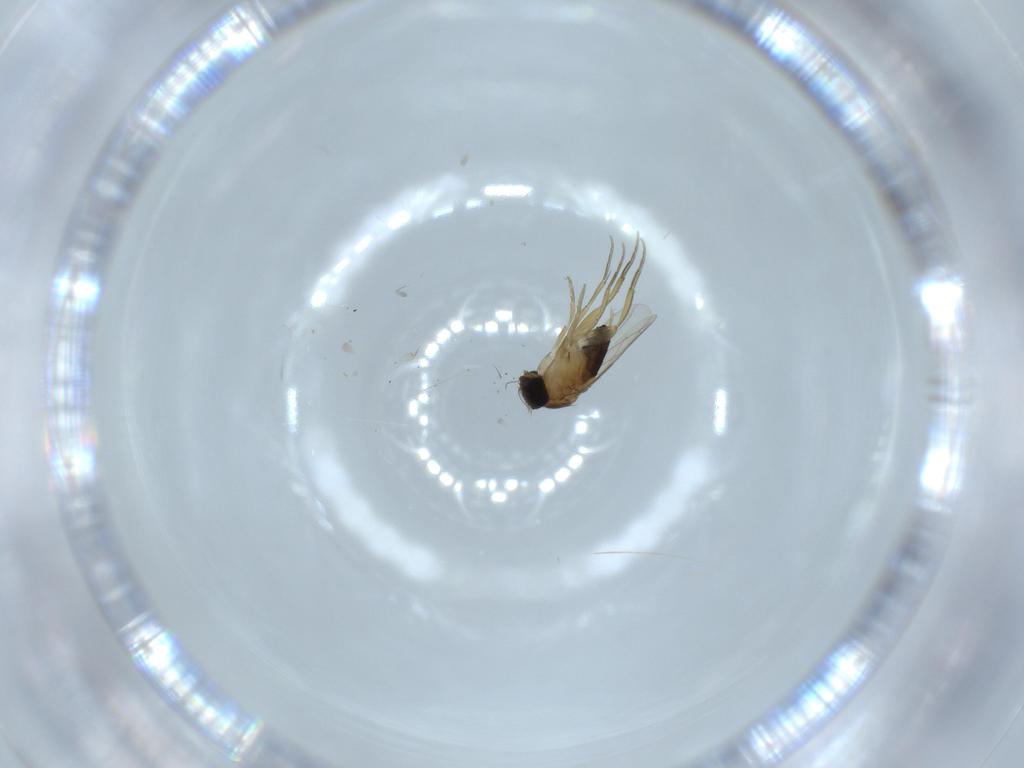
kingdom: Animalia
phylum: Arthropoda
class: Insecta
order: Diptera
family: Phoridae
